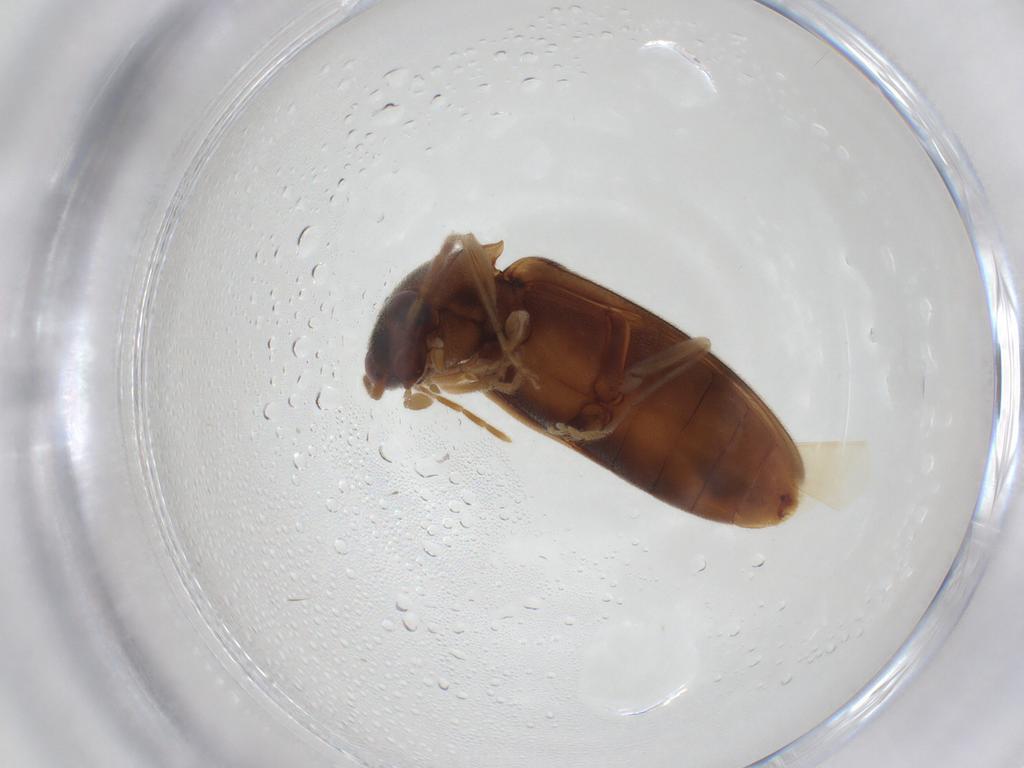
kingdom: Animalia
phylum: Arthropoda
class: Insecta
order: Coleoptera
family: Elateridae
